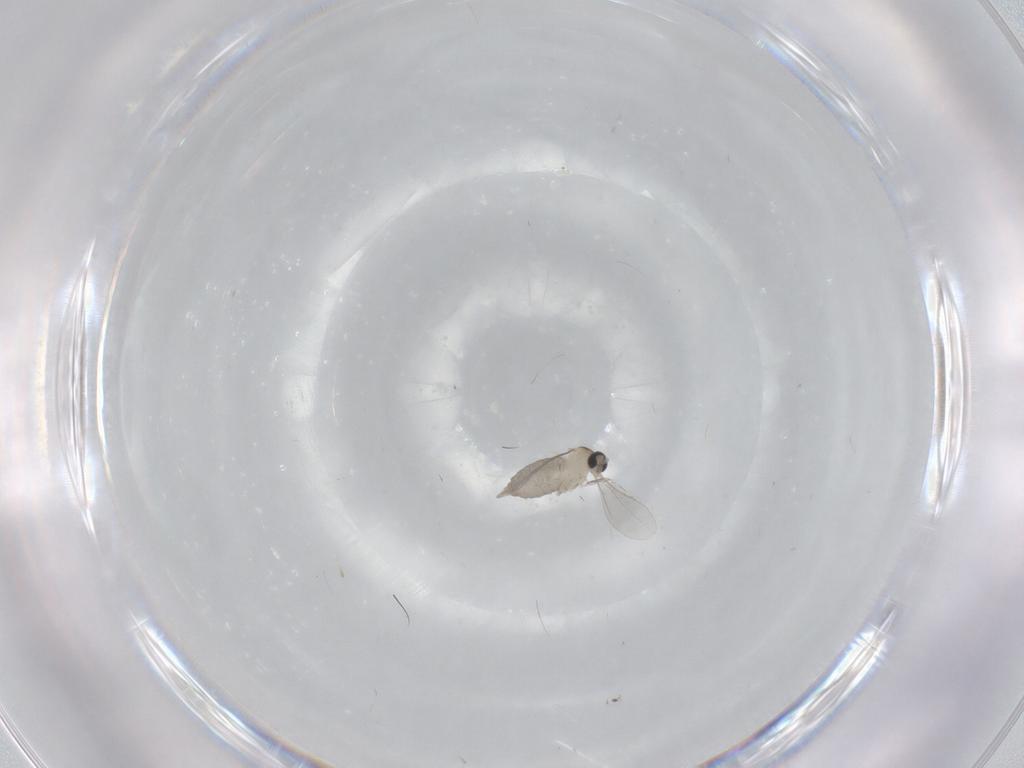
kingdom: Animalia
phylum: Arthropoda
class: Insecta
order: Diptera
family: Cecidomyiidae
